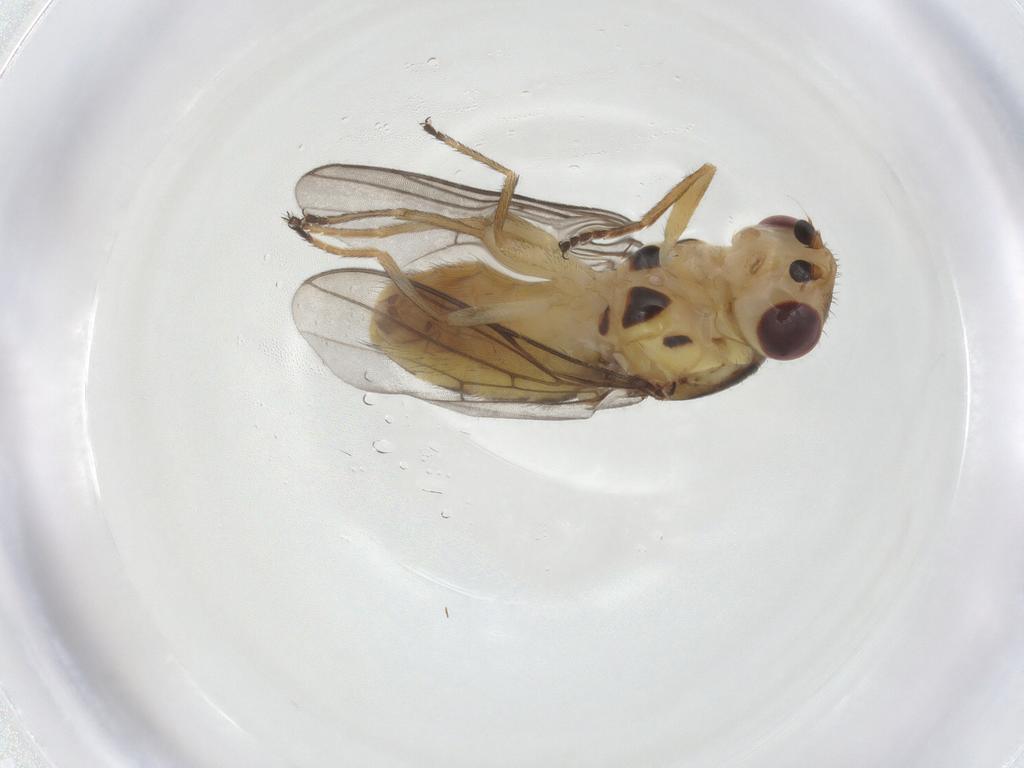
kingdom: Animalia
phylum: Arthropoda
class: Insecta
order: Diptera
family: Chloropidae
